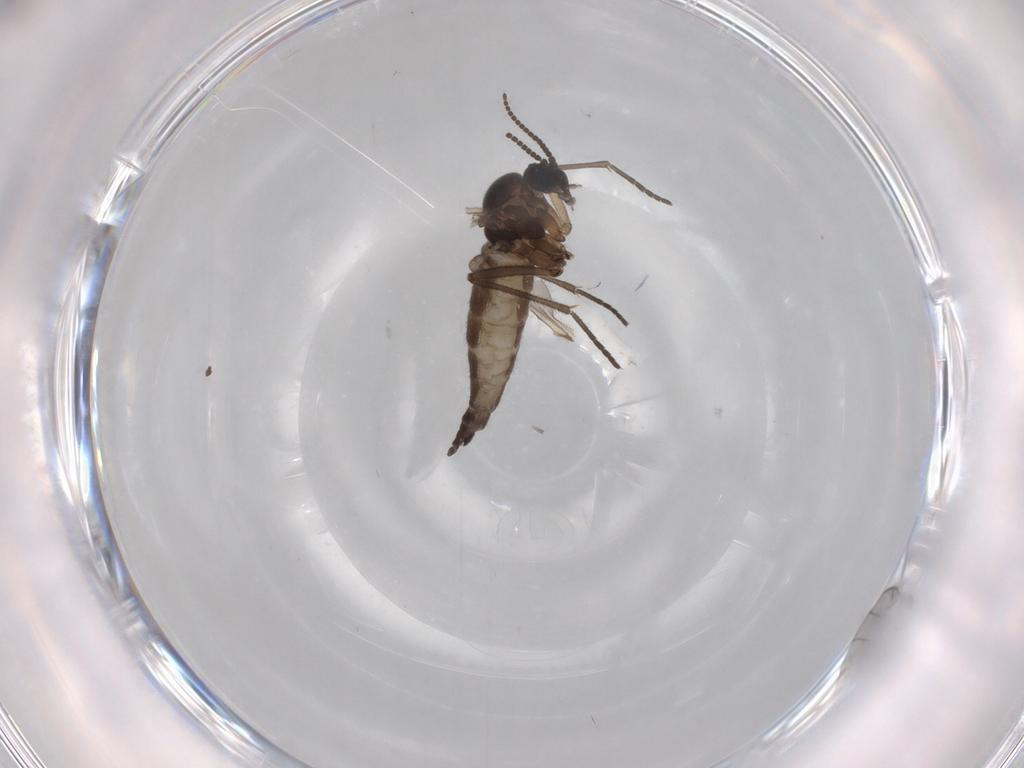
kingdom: Animalia
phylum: Arthropoda
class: Insecta
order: Diptera
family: Sciaridae
